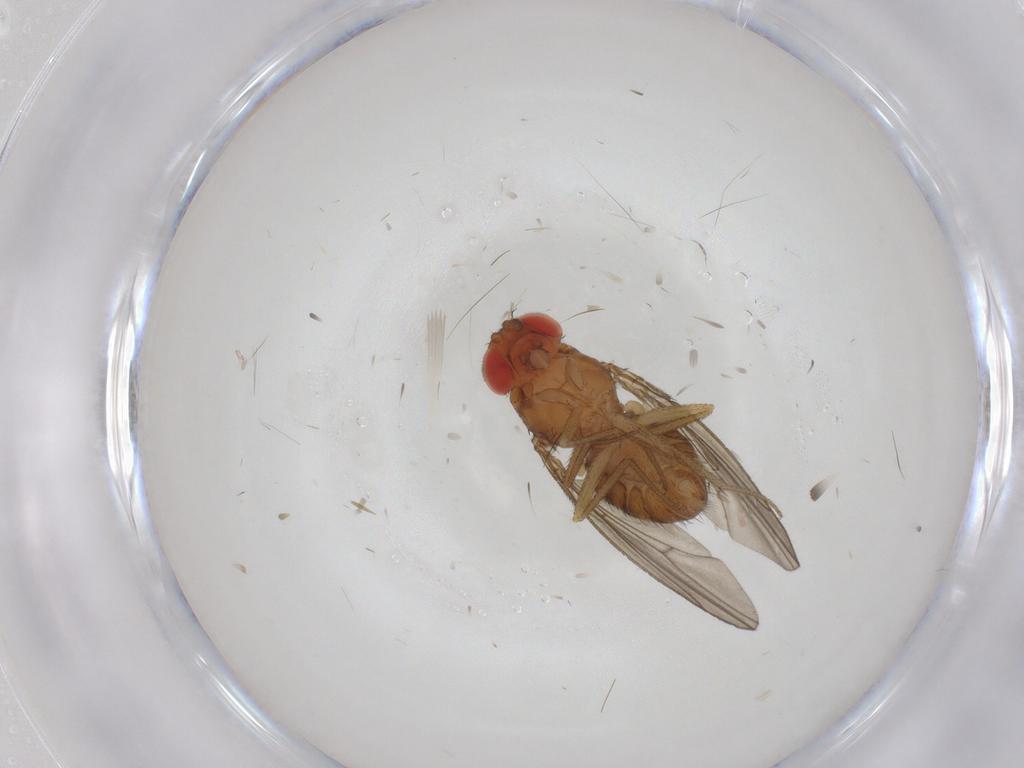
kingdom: Animalia
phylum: Arthropoda
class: Insecta
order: Diptera
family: Drosophilidae
